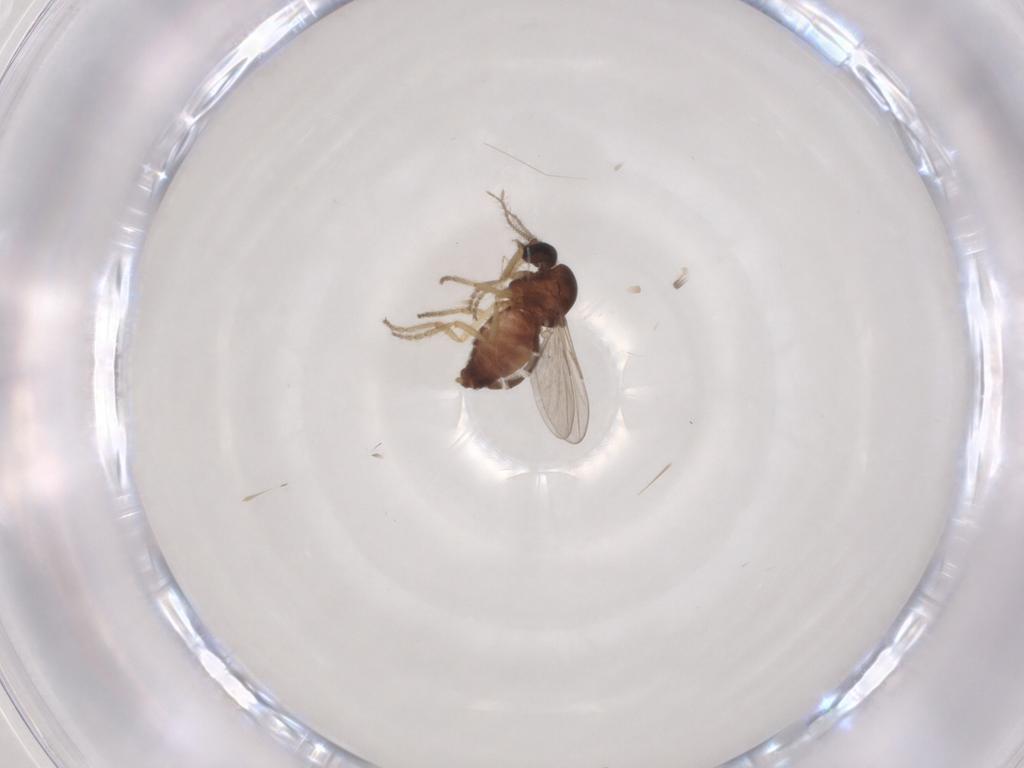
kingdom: Animalia
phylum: Arthropoda
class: Insecta
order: Diptera
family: Ceratopogonidae
